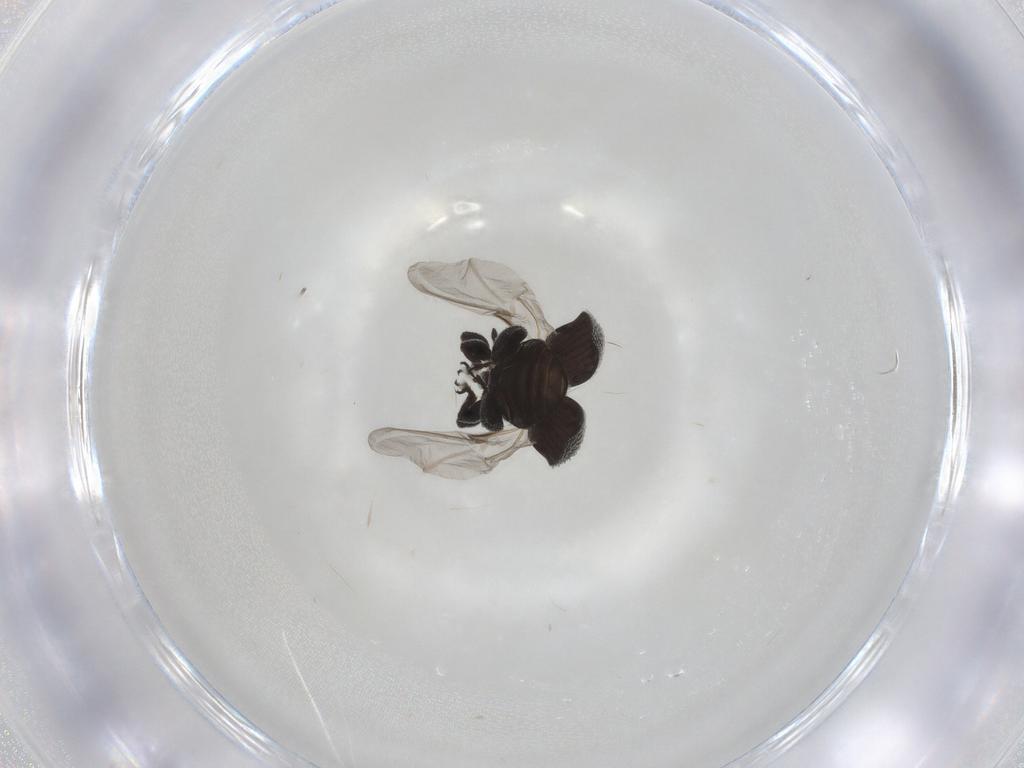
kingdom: Animalia
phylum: Arthropoda
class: Insecta
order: Coleoptera
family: Curculionidae
